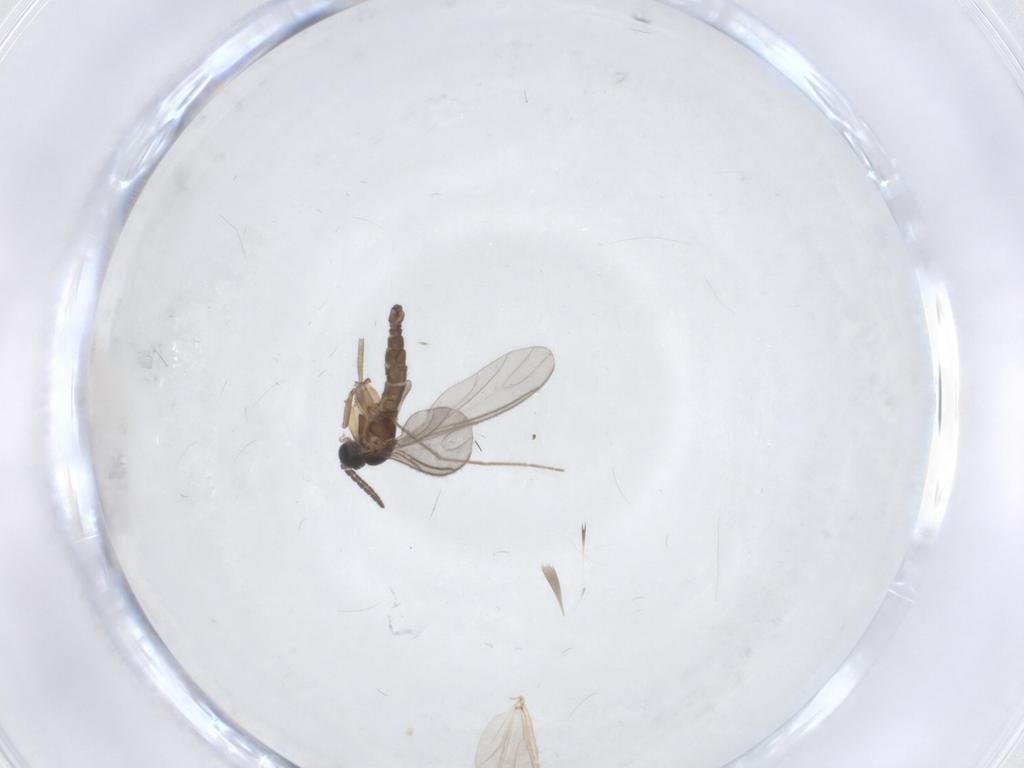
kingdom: Animalia
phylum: Arthropoda
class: Insecta
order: Diptera
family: Sciaridae
